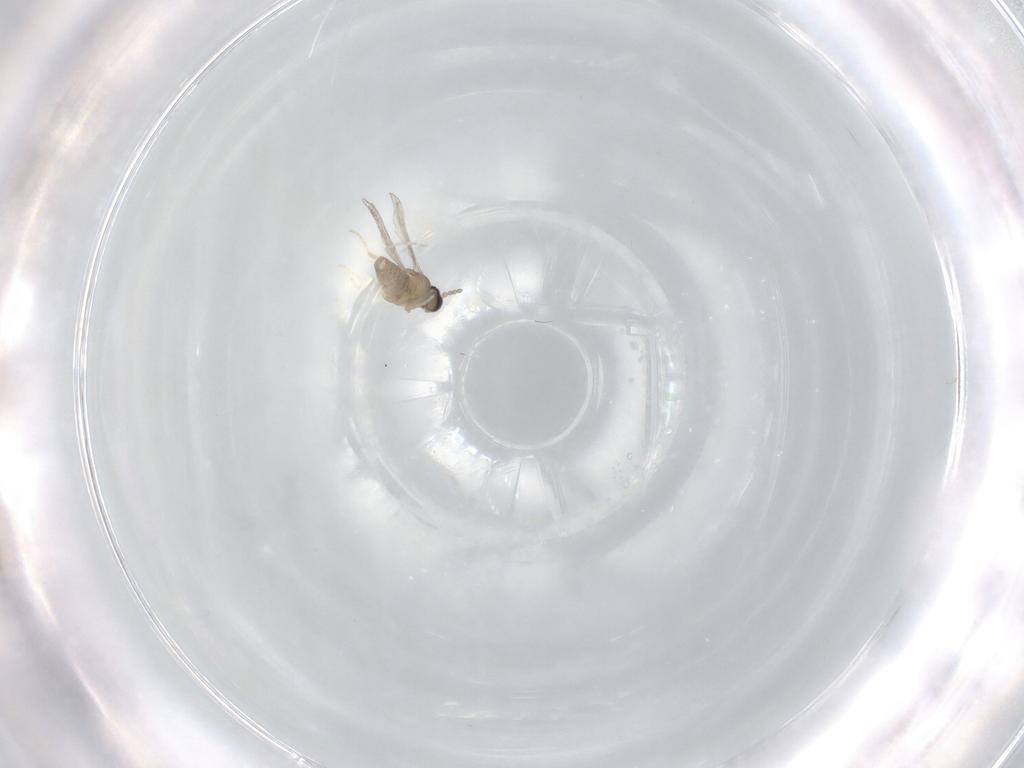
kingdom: Animalia
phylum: Arthropoda
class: Insecta
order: Diptera
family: Cecidomyiidae
